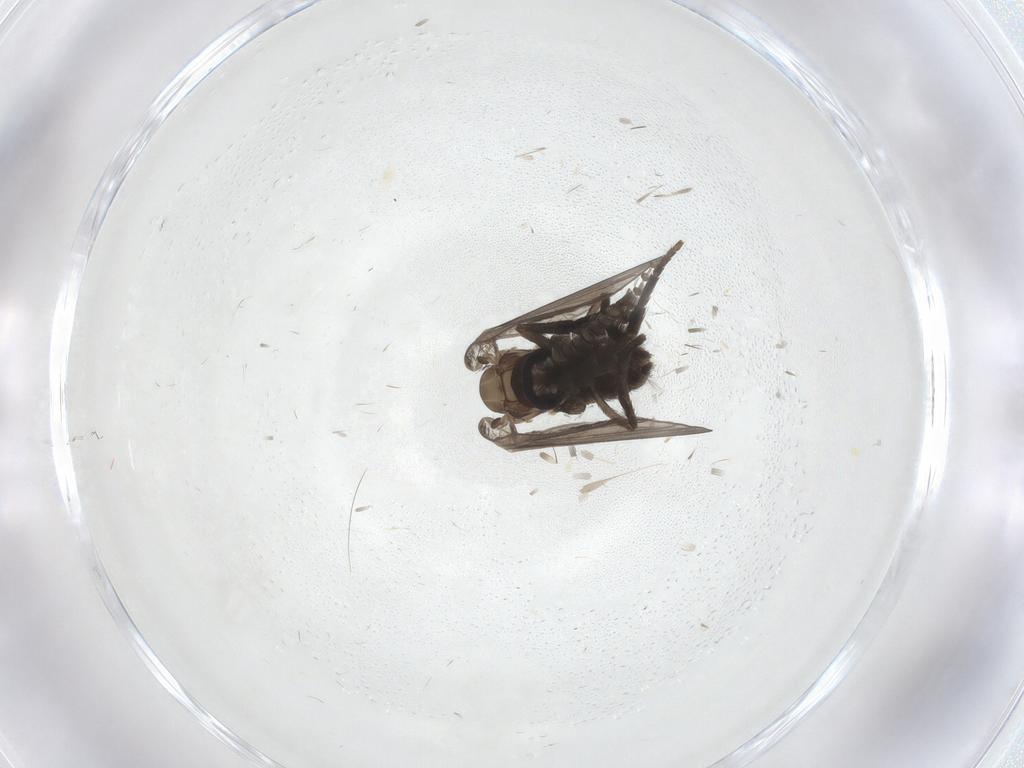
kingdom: Animalia
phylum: Arthropoda
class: Insecta
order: Diptera
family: Psychodidae
